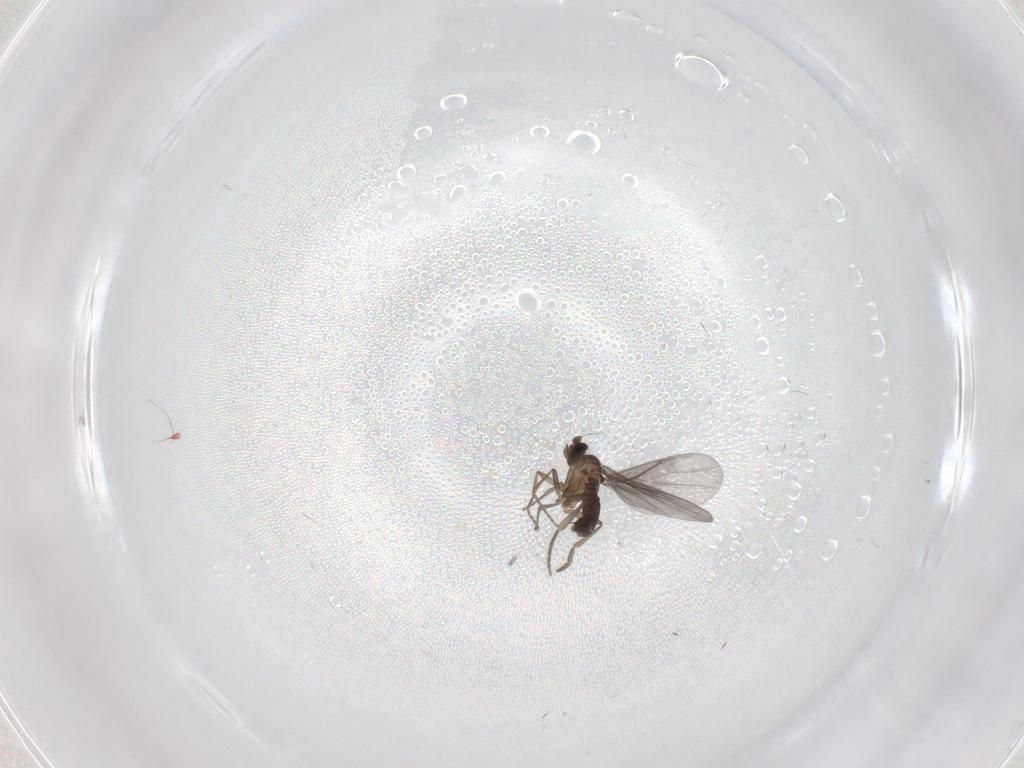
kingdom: Animalia
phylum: Arthropoda
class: Insecta
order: Diptera
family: Cecidomyiidae
